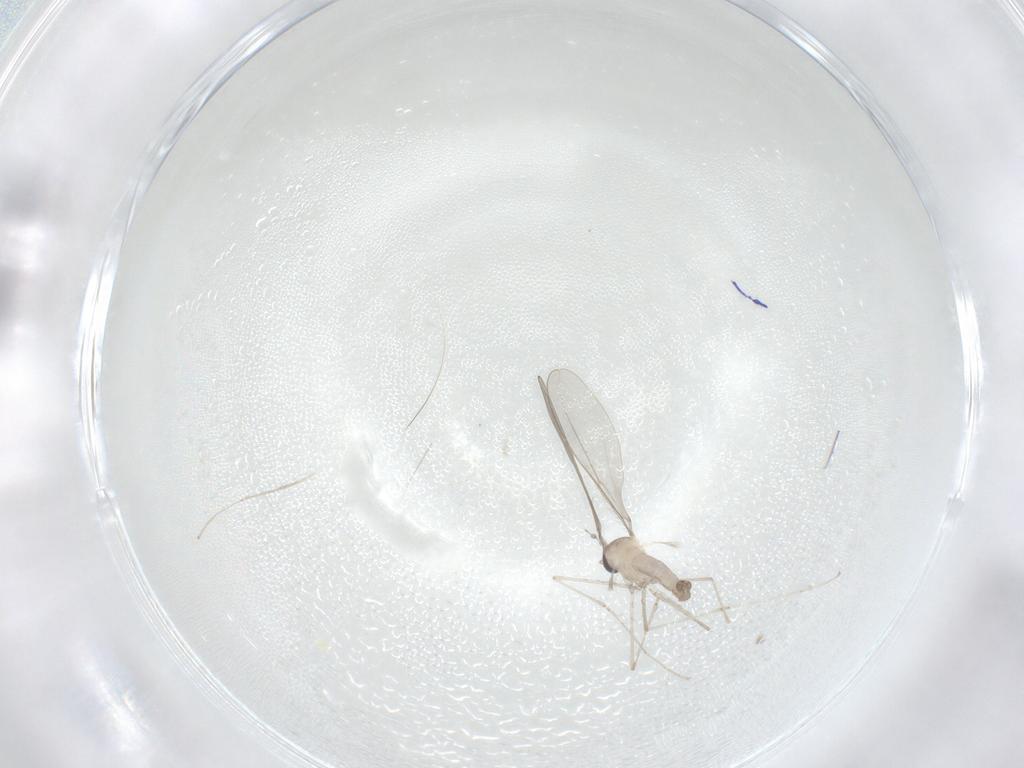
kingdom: Animalia
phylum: Arthropoda
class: Insecta
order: Diptera
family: Cecidomyiidae
